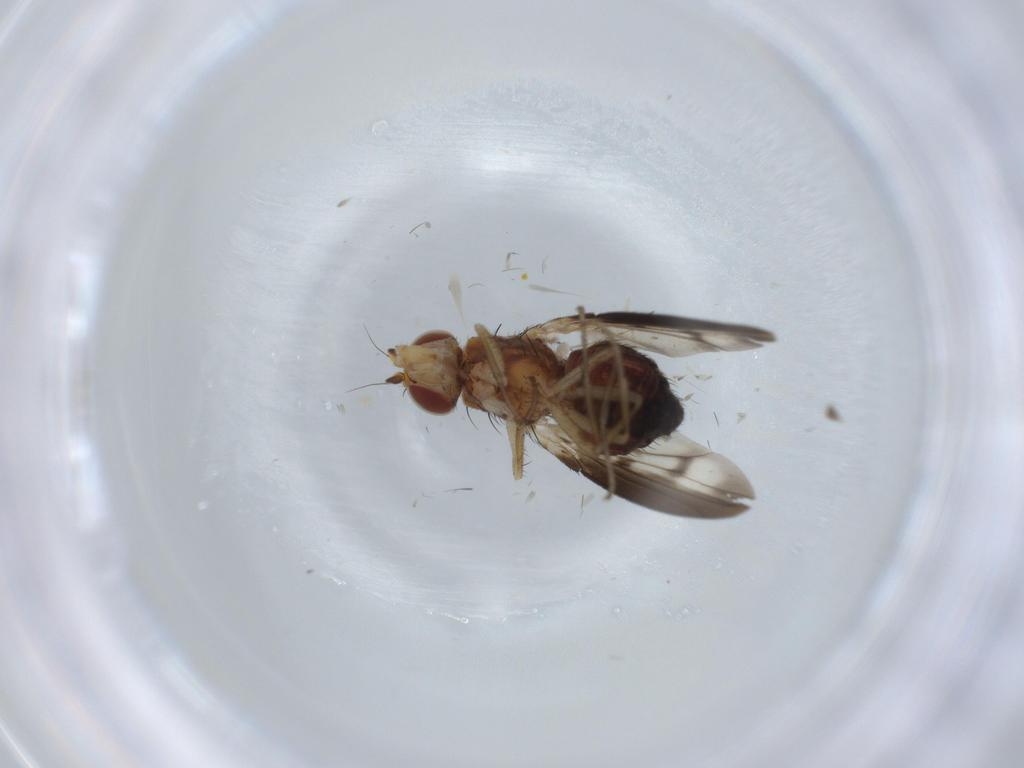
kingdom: Animalia
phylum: Arthropoda
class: Insecta
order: Diptera
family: Heleomyzidae
